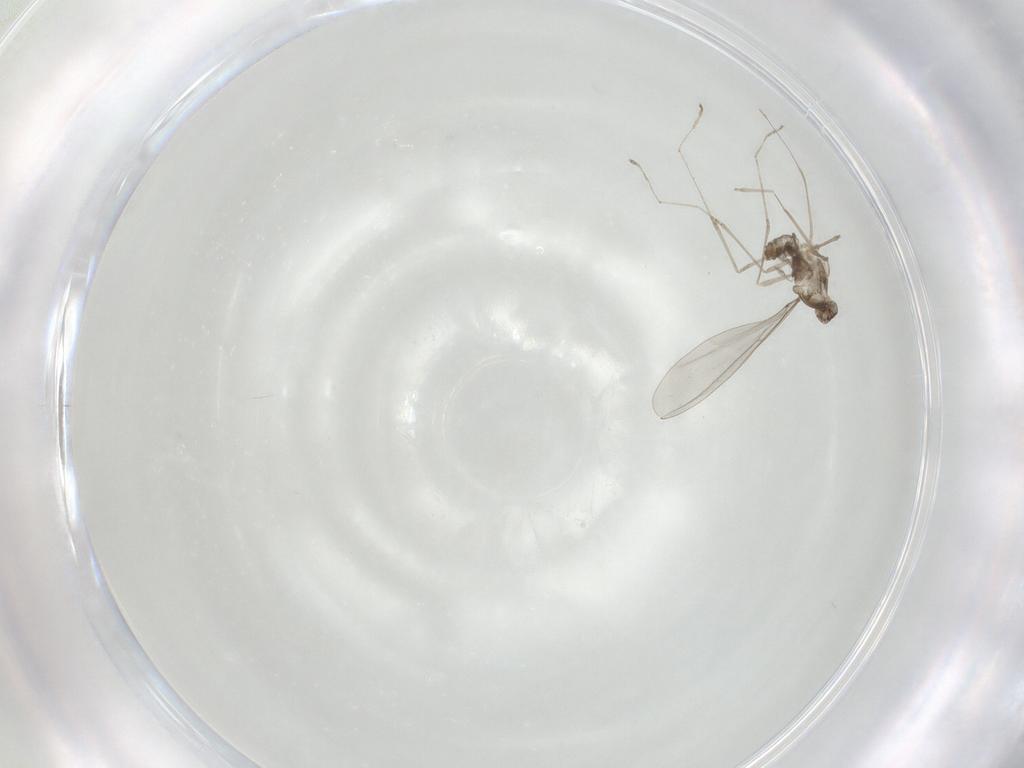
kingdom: Animalia
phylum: Arthropoda
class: Insecta
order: Diptera
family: Cecidomyiidae
